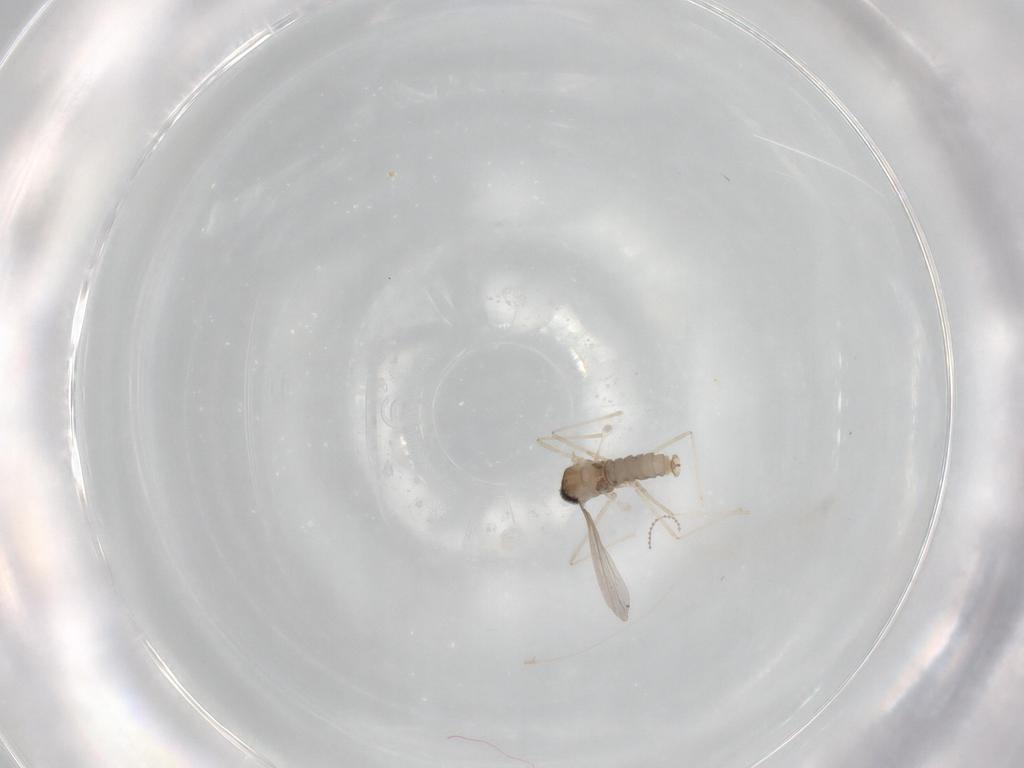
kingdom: Animalia
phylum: Arthropoda
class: Insecta
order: Diptera
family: Cecidomyiidae
